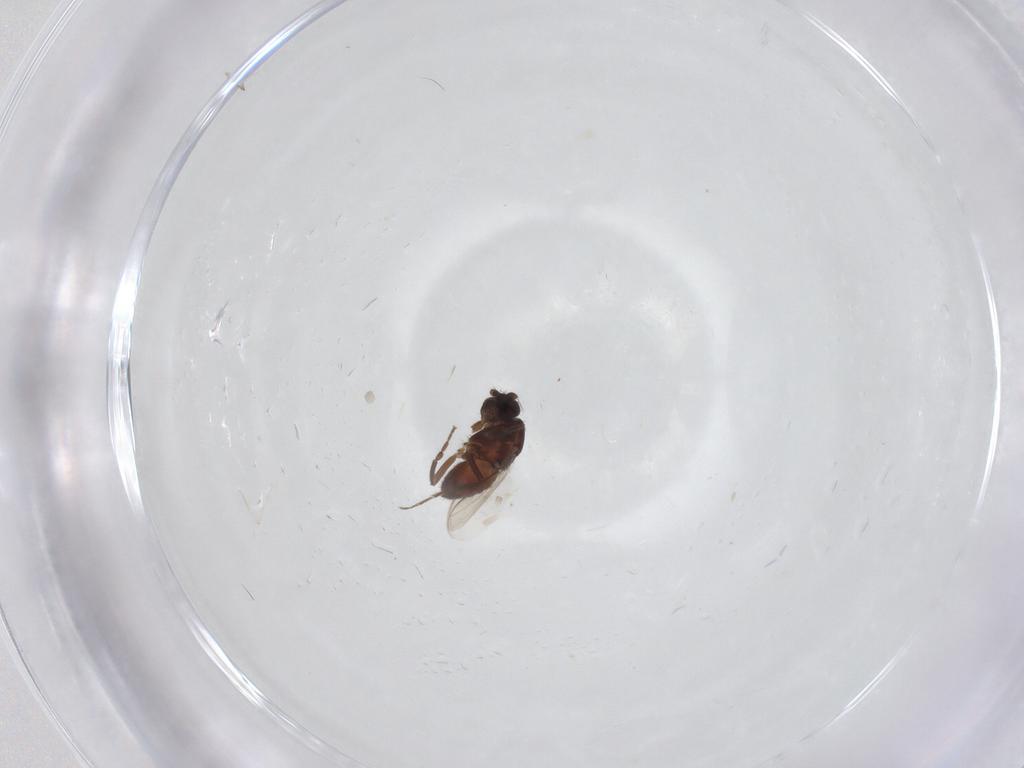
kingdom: Animalia
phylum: Arthropoda
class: Insecta
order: Diptera
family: Sphaeroceridae
